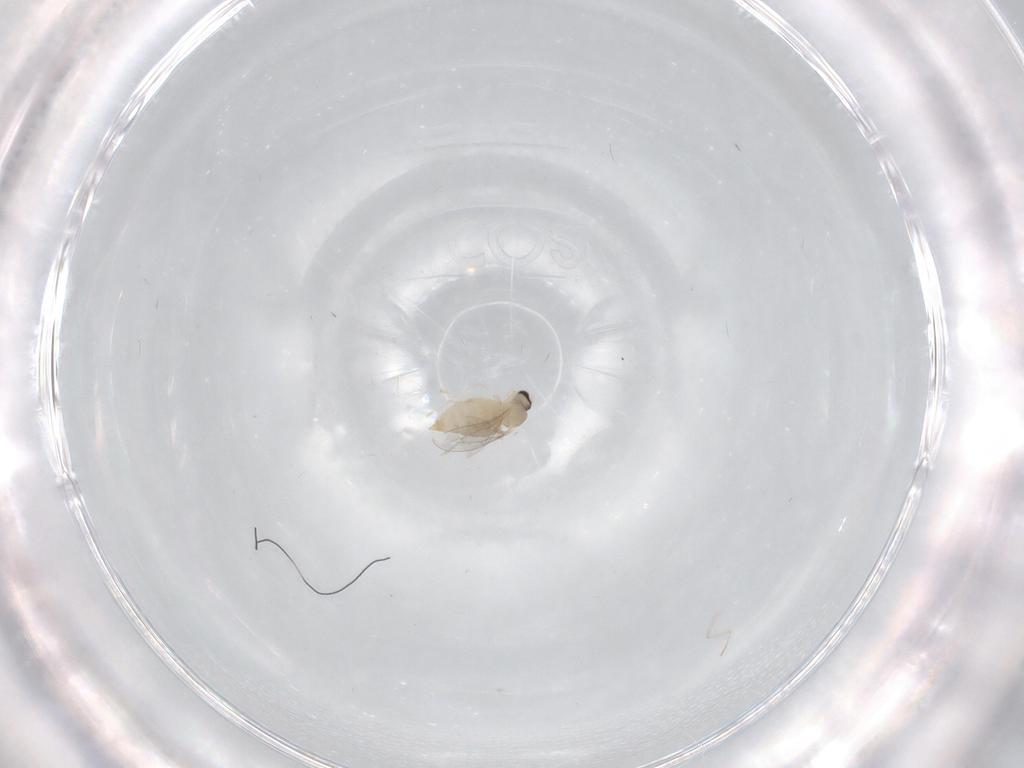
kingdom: Animalia
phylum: Arthropoda
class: Insecta
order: Diptera
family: Cecidomyiidae
